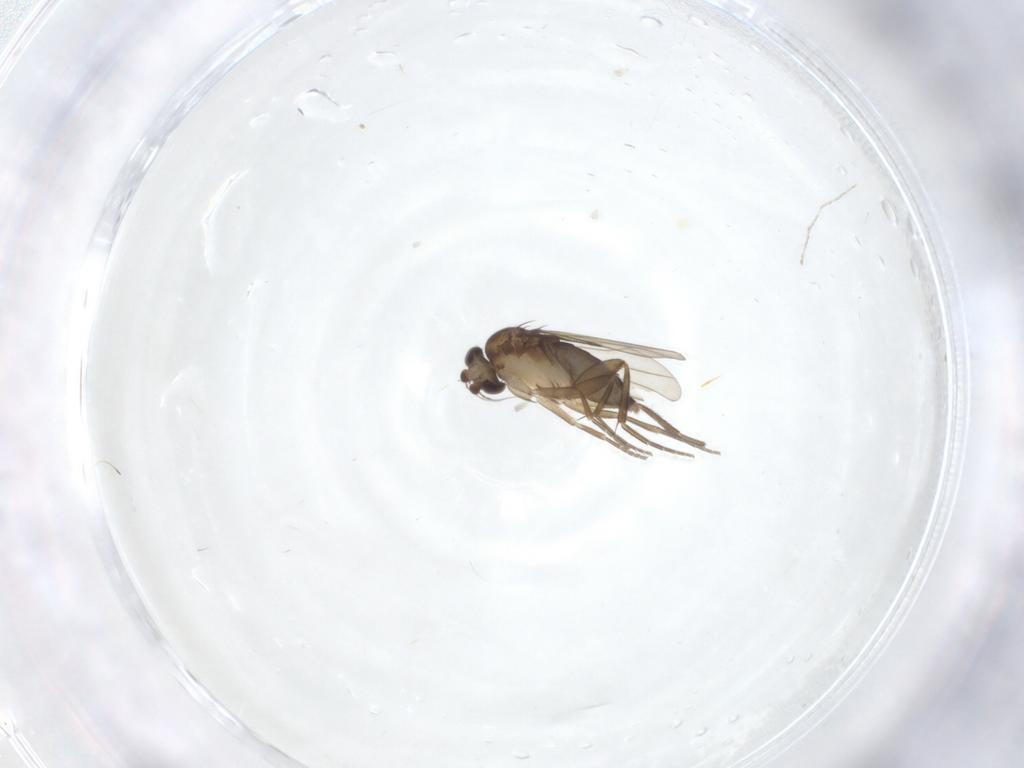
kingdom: Animalia
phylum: Arthropoda
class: Insecta
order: Diptera
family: Phoridae
